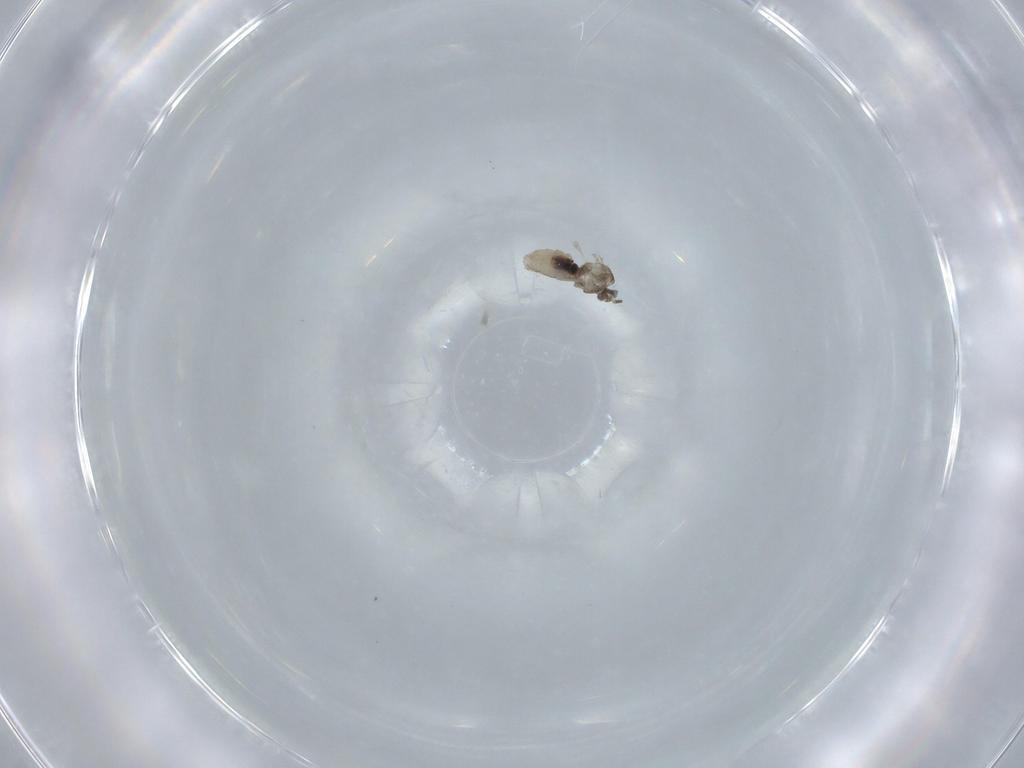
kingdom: Animalia
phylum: Arthropoda
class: Insecta
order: Diptera
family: Cecidomyiidae
